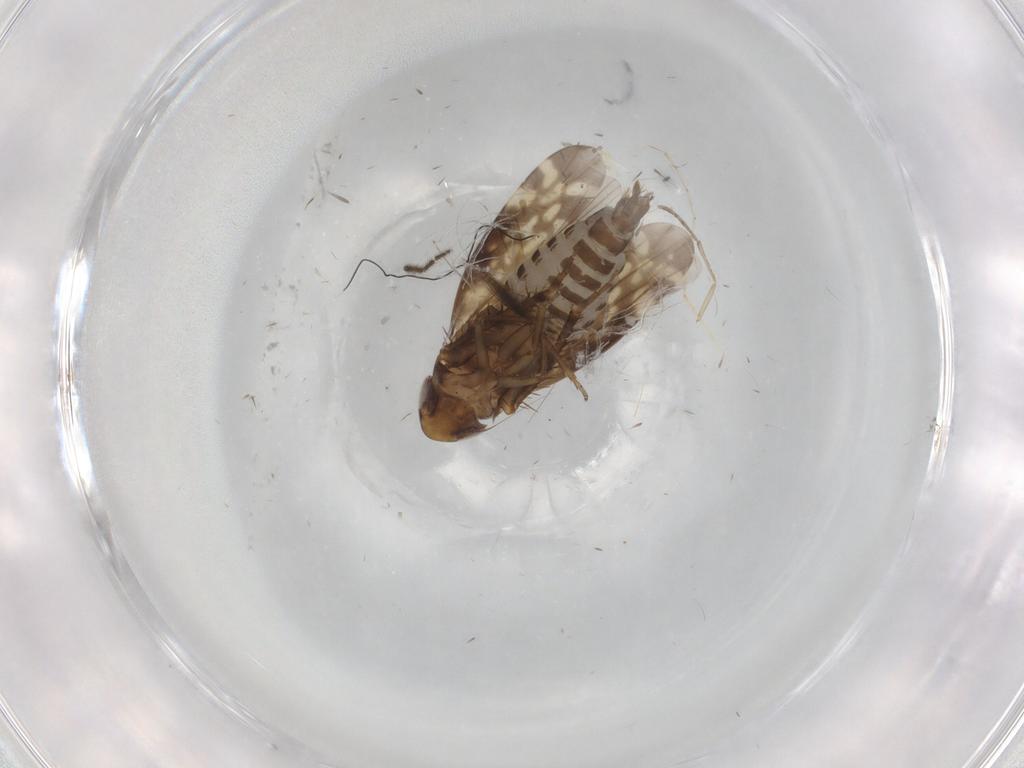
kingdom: Animalia
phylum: Arthropoda
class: Insecta
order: Hemiptera
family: Cicadellidae
